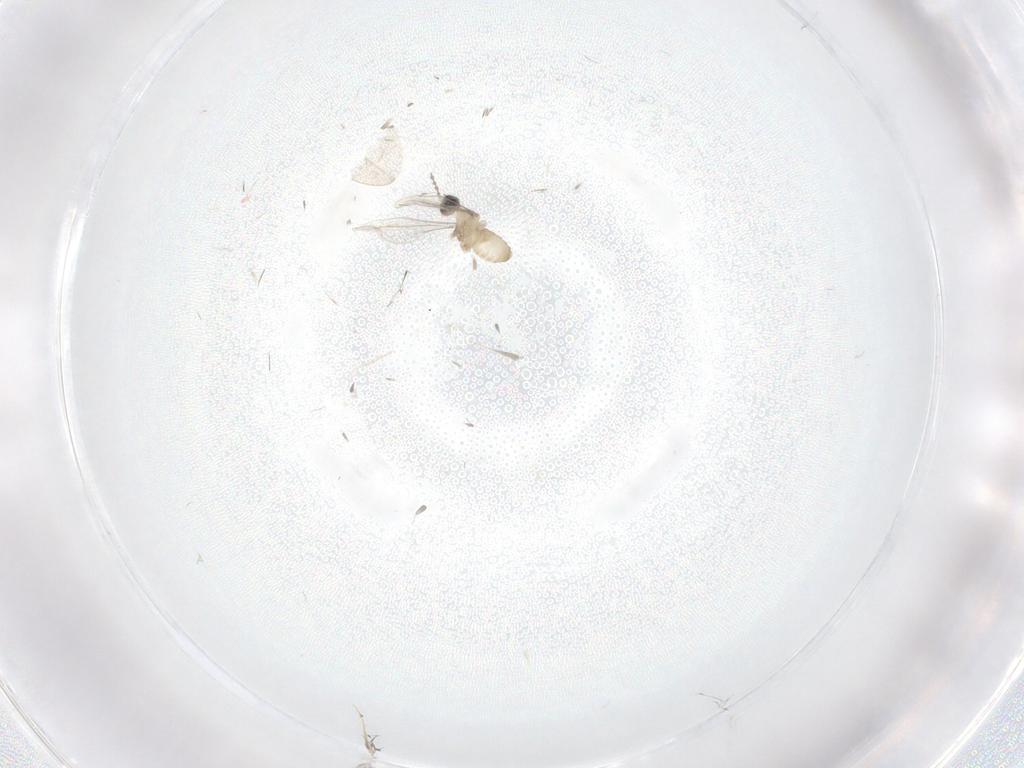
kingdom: Animalia
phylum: Arthropoda
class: Insecta
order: Diptera
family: Cecidomyiidae
